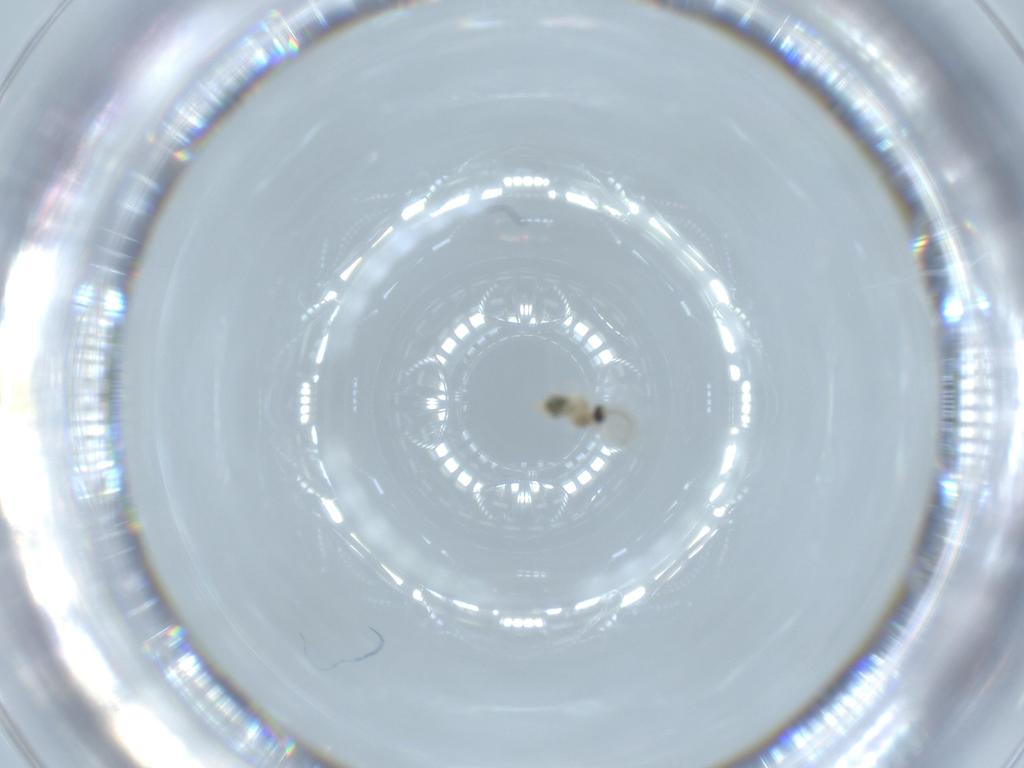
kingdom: Animalia
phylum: Arthropoda
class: Insecta
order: Diptera
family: Cecidomyiidae
